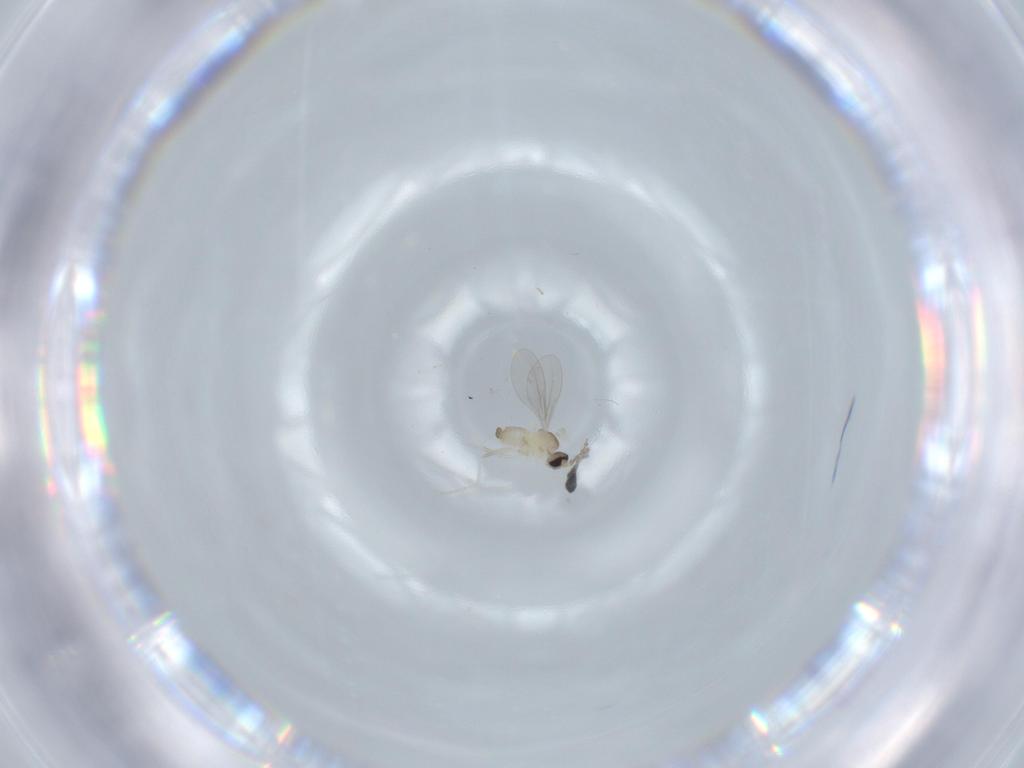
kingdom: Animalia
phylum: Arthropoda
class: Insecta
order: Diptera
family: Cecidomyiidae
